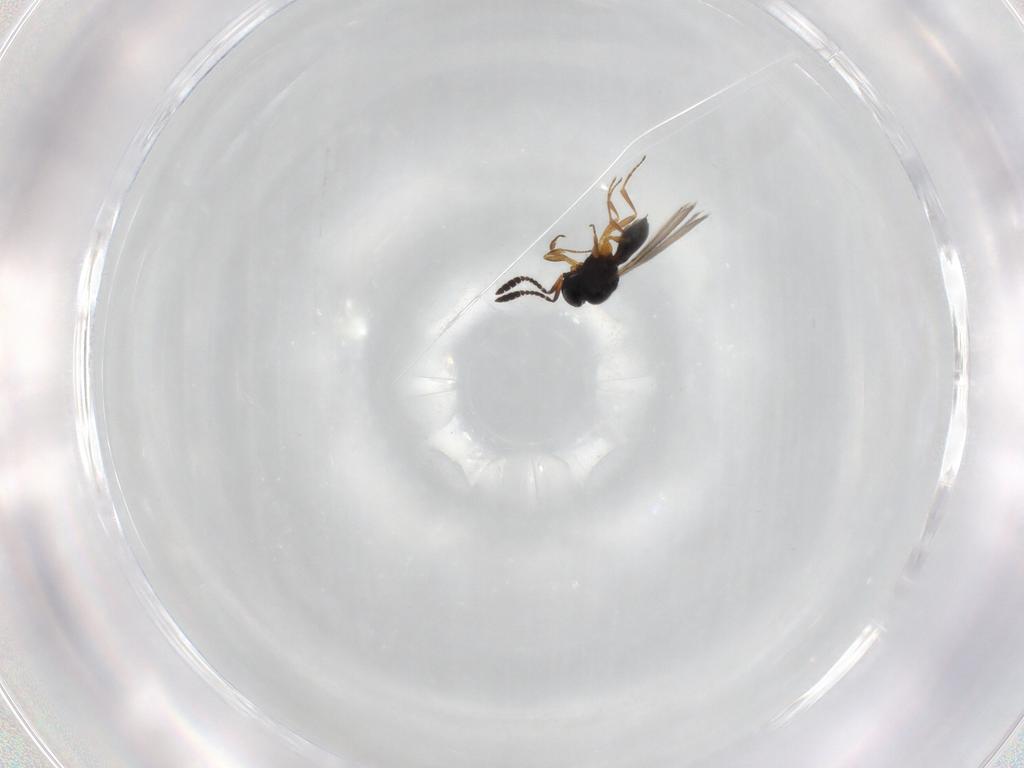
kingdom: Animalia
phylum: Arthropoda
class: Insecta
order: Hymenoptera
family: Scelionidae
